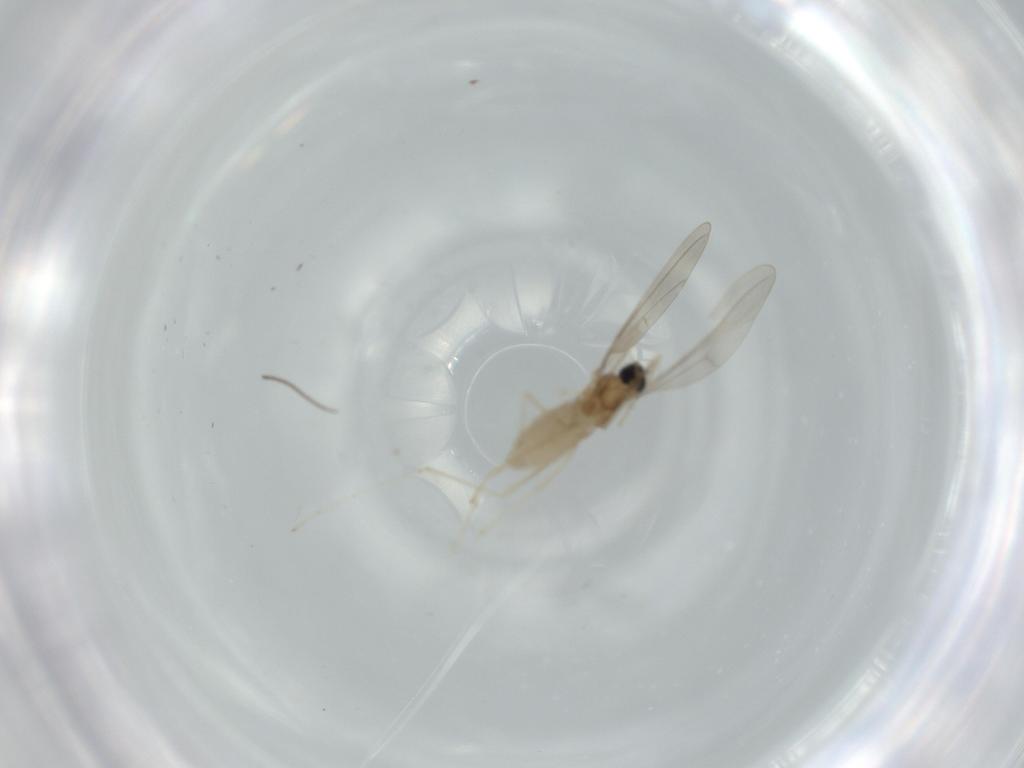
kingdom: Animalia
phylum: Arthropoda
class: Insecta
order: Diptera
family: Cecidomyiidae
